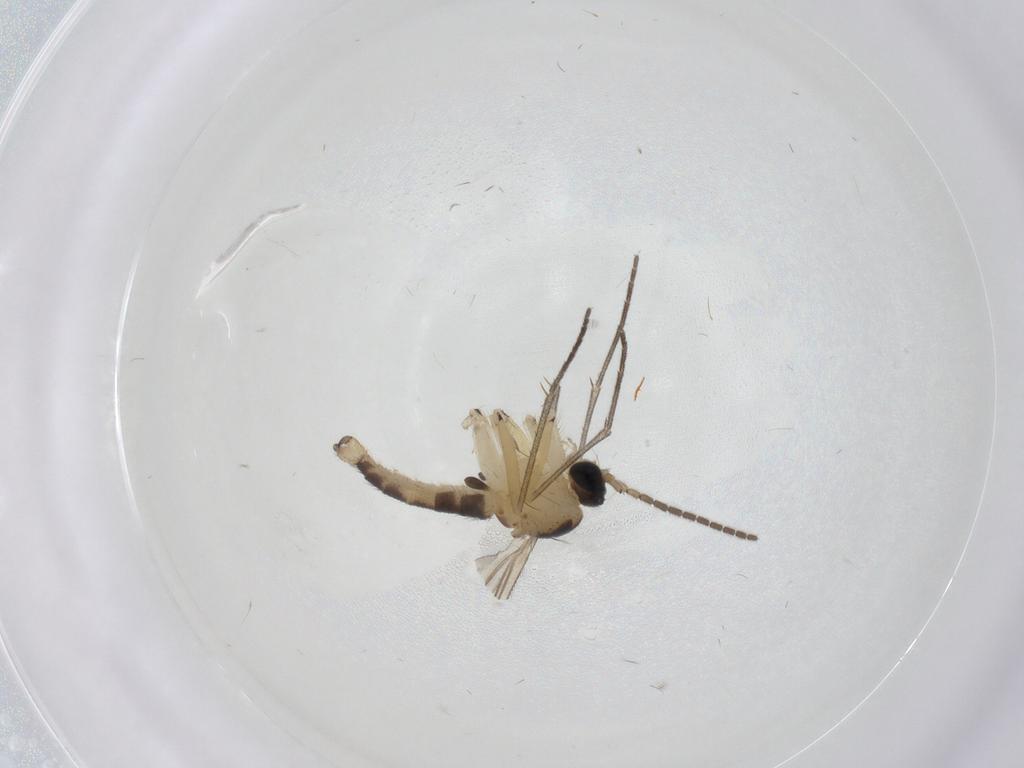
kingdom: Animalia
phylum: Arthropoda
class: Insecta
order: Diptera
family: Sciaridae
